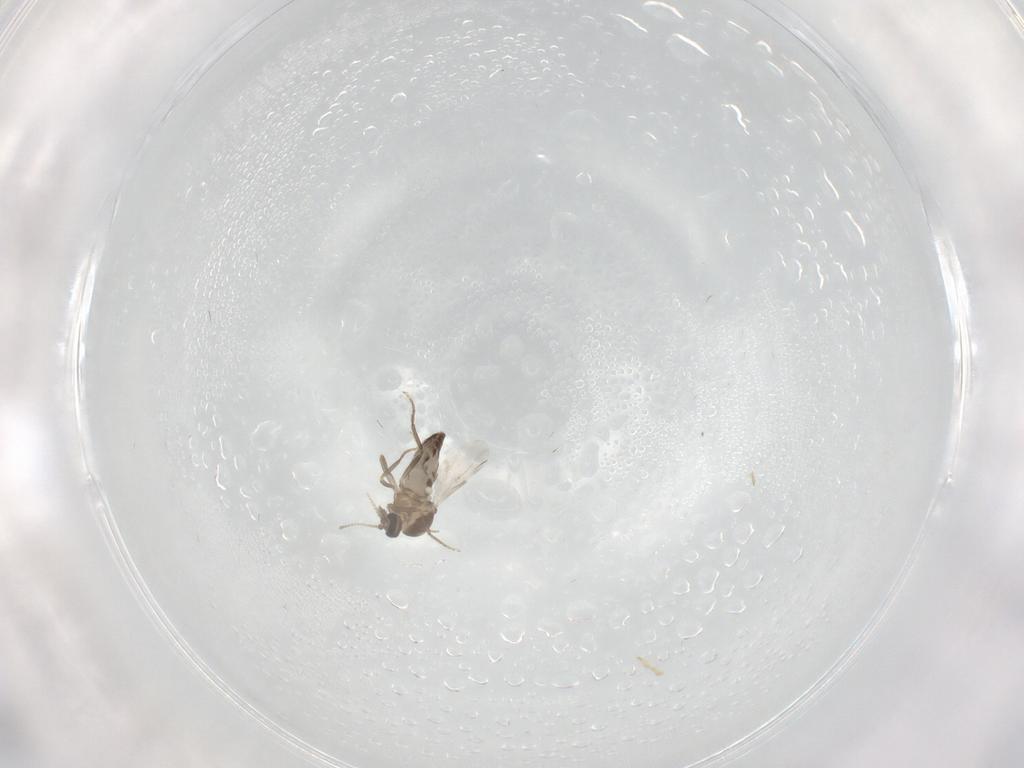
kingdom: Animalia
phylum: Arthropoda
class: Insecta
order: Diptera
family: Ceratopogonidae
